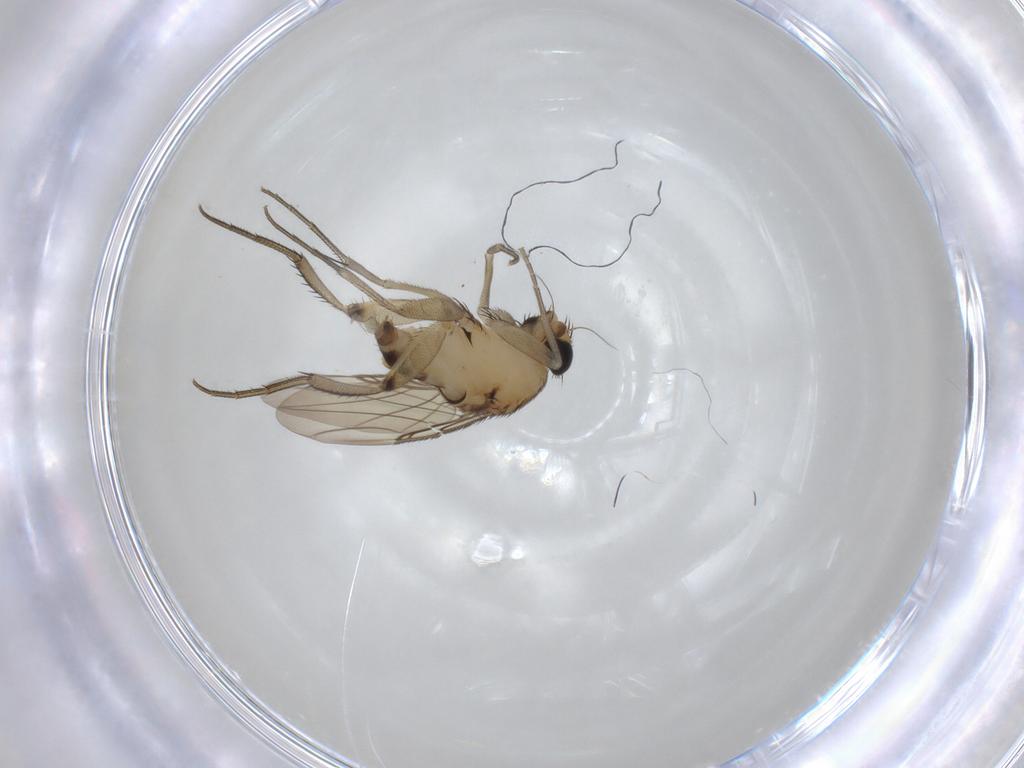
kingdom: Animalia
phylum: Arthropoda
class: Insecta
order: Diptera
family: Phoridae
